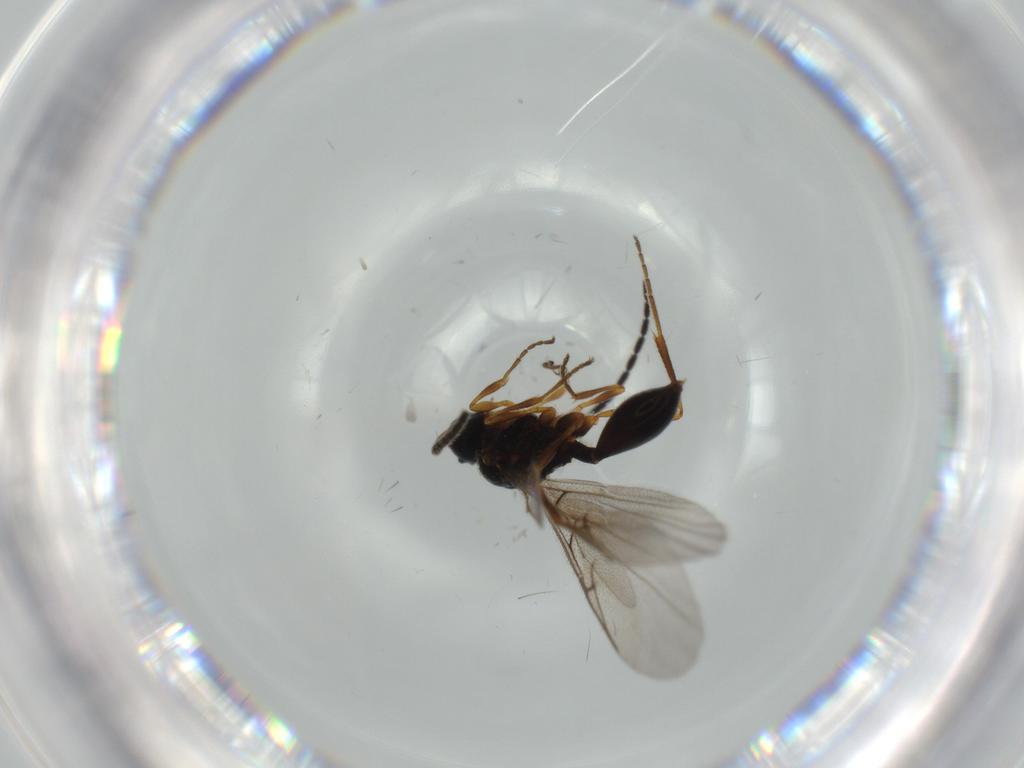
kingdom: Animalia
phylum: Arthropoda
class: Insecta
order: Hymenoptera
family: Diapriidae
